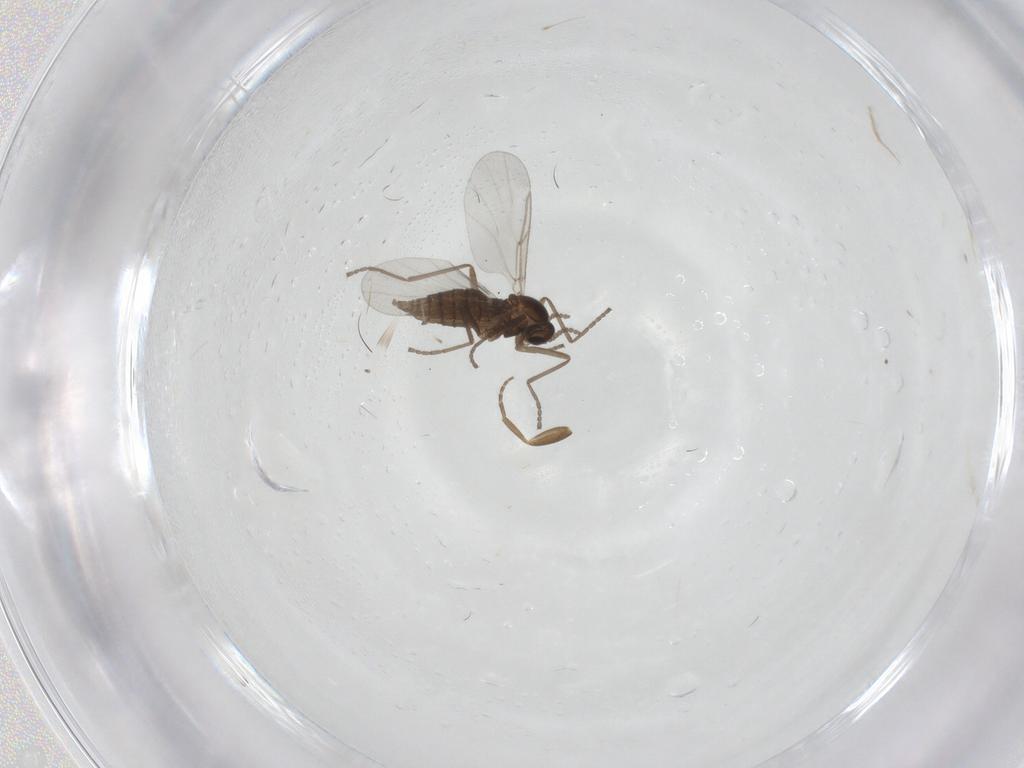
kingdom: Animalia
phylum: Arthropoda
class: Insecta
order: Diptera
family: Cecidomyiidae
